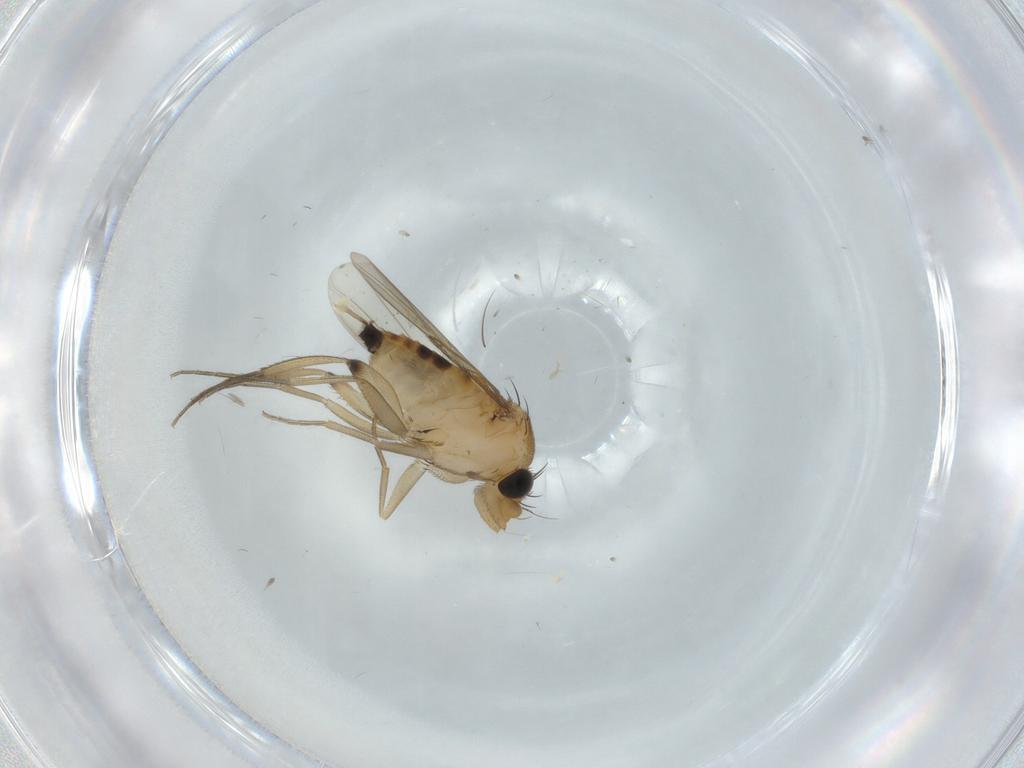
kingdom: Animalia
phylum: Arthropoda
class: Insecta
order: Diptera
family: Phoridae
